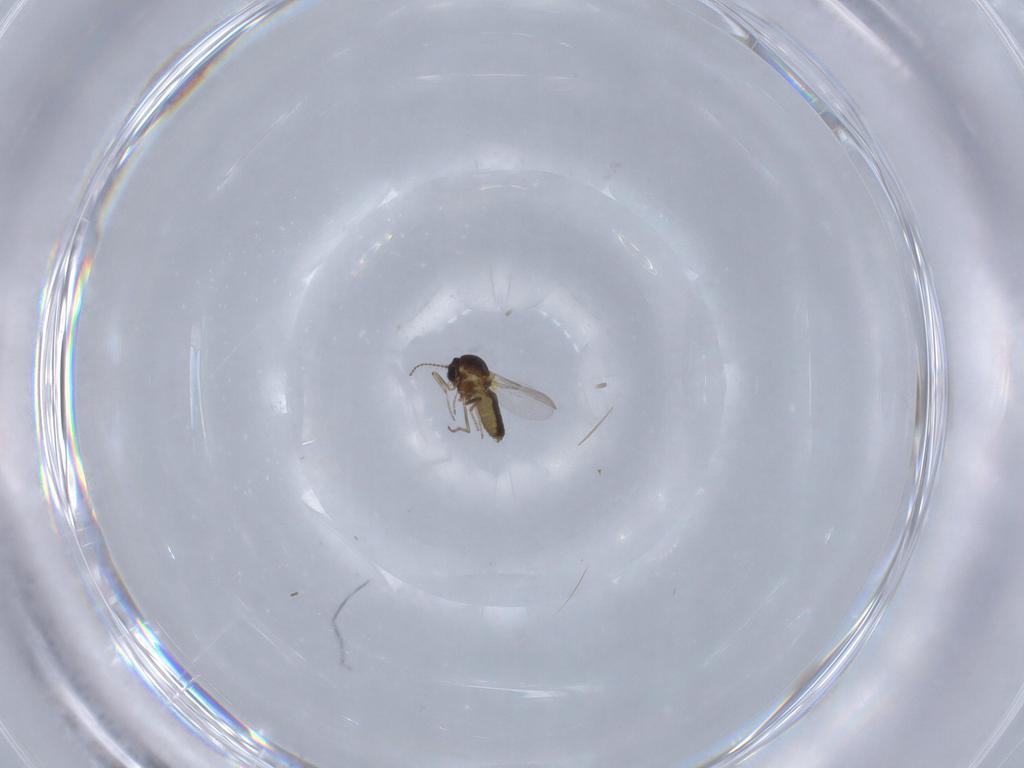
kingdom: Animalia
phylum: Arthropoda
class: Insecta
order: Diptera
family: Ceratopogonidae
